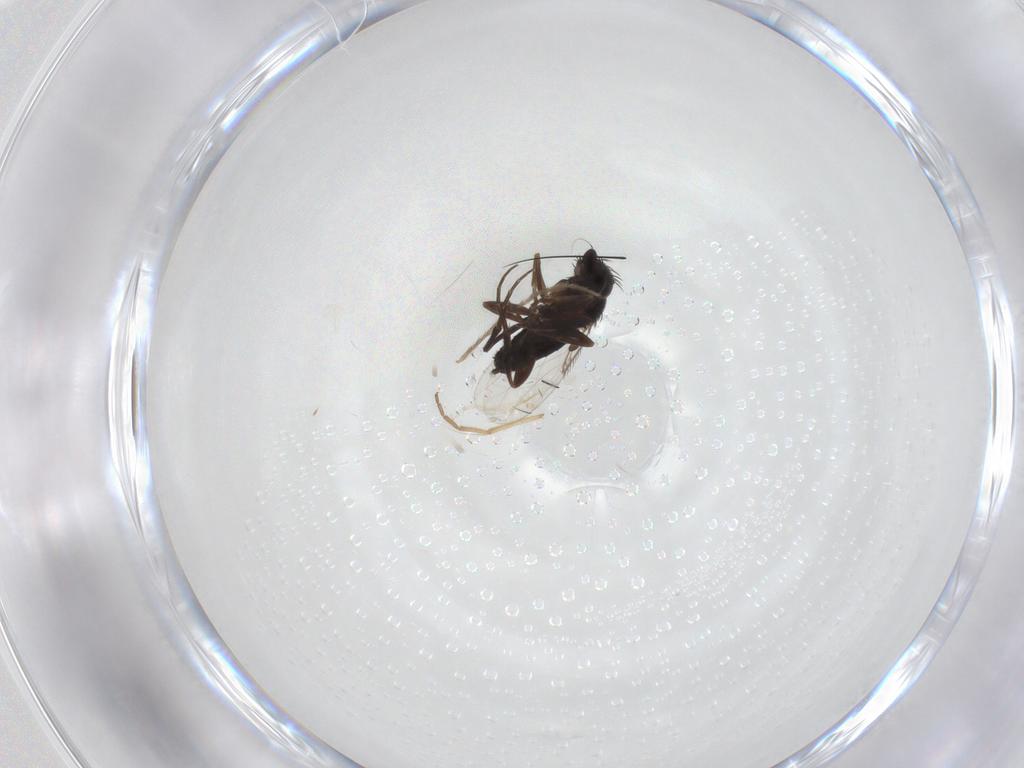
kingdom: Animalia
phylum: Arthropoda
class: Insecta
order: Diptera
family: Phoridae
